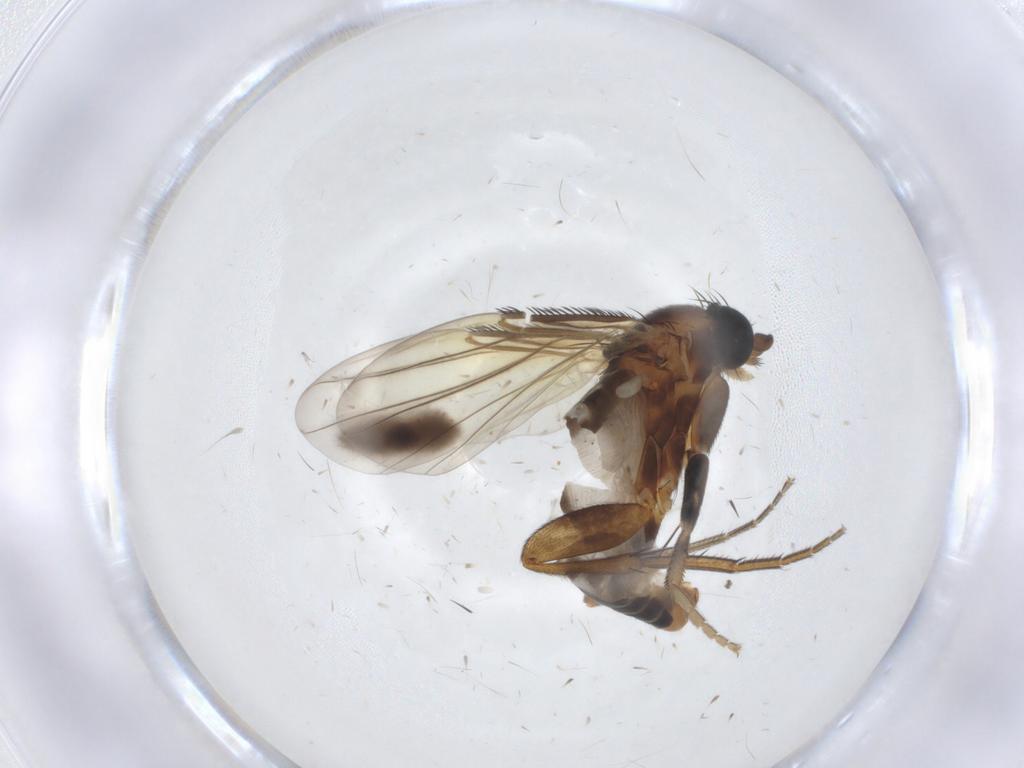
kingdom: Animalia
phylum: Arthropoda
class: Insecta
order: Diptera
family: Phoridae
